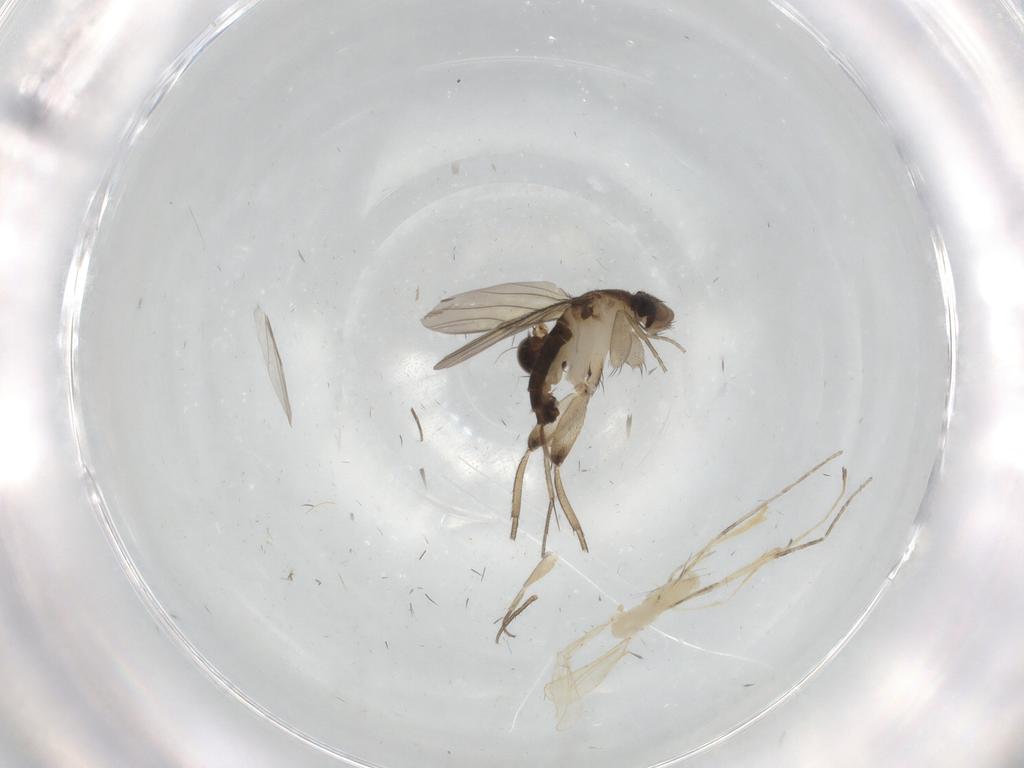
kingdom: Animalia
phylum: Arthropoda
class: Insecta
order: Diptera
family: Cecidomyiidae
